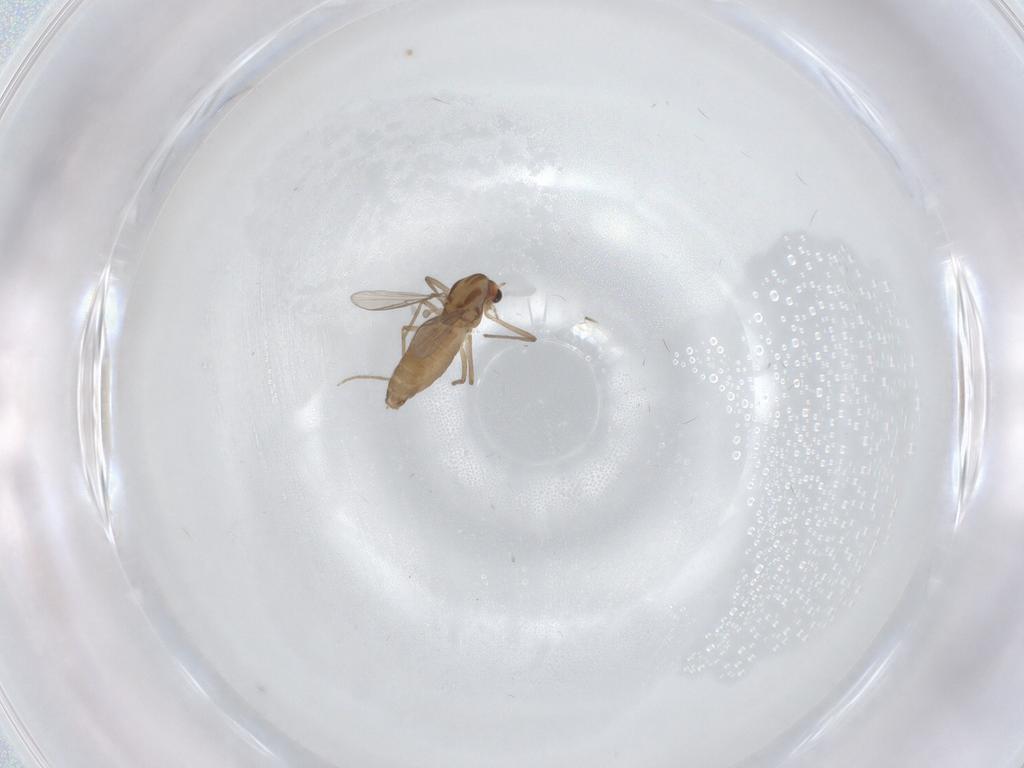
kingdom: Animalia
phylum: Arthropoda
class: Insecta
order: Diptera
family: Chironomidae
